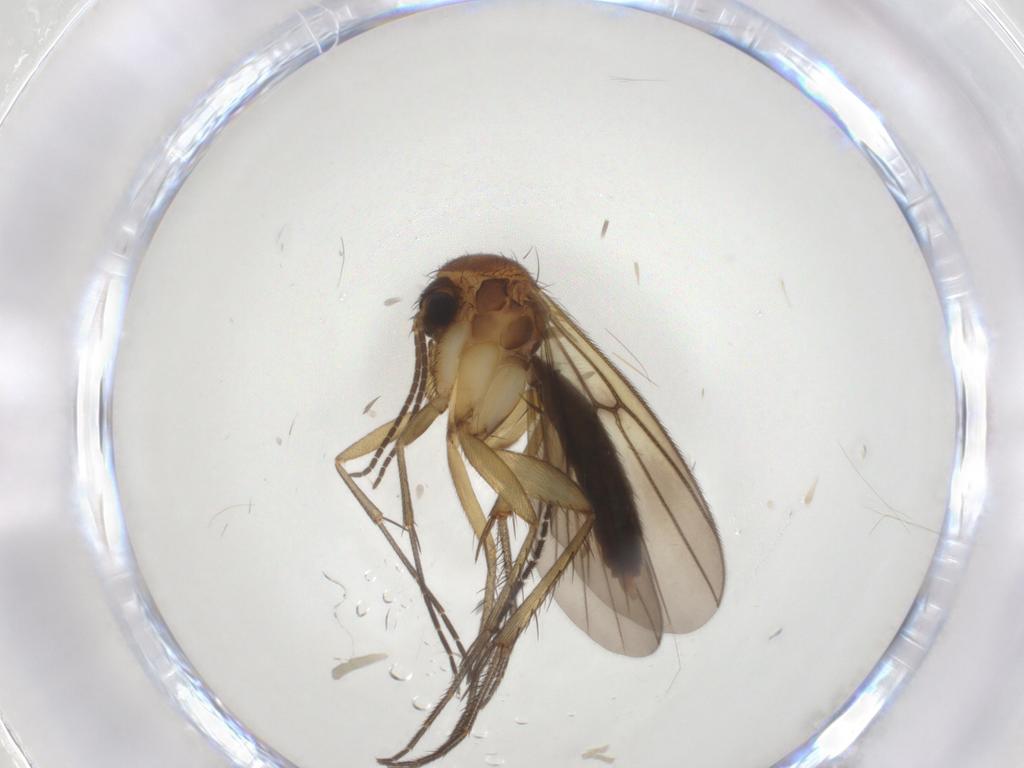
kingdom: Animalia
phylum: Arthropoda
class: Insecta
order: Diptera
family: Mycetophilidae
